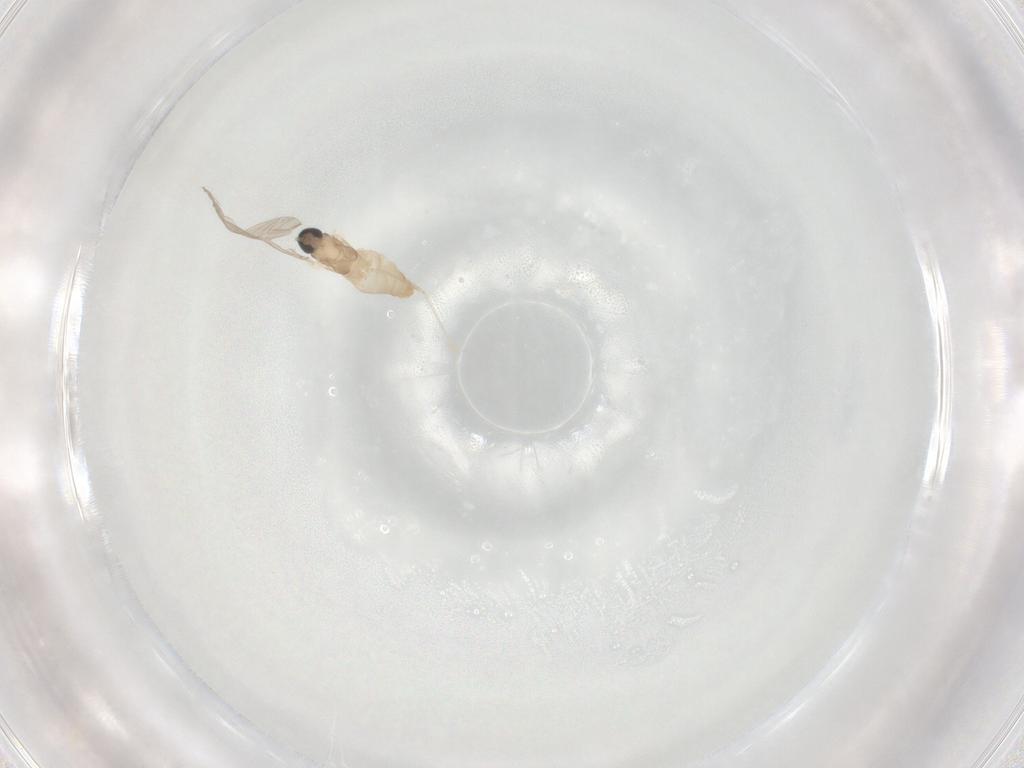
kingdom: Animalia
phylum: Arthropoda
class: Insecta
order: Diptera
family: Cecidomyiidae
